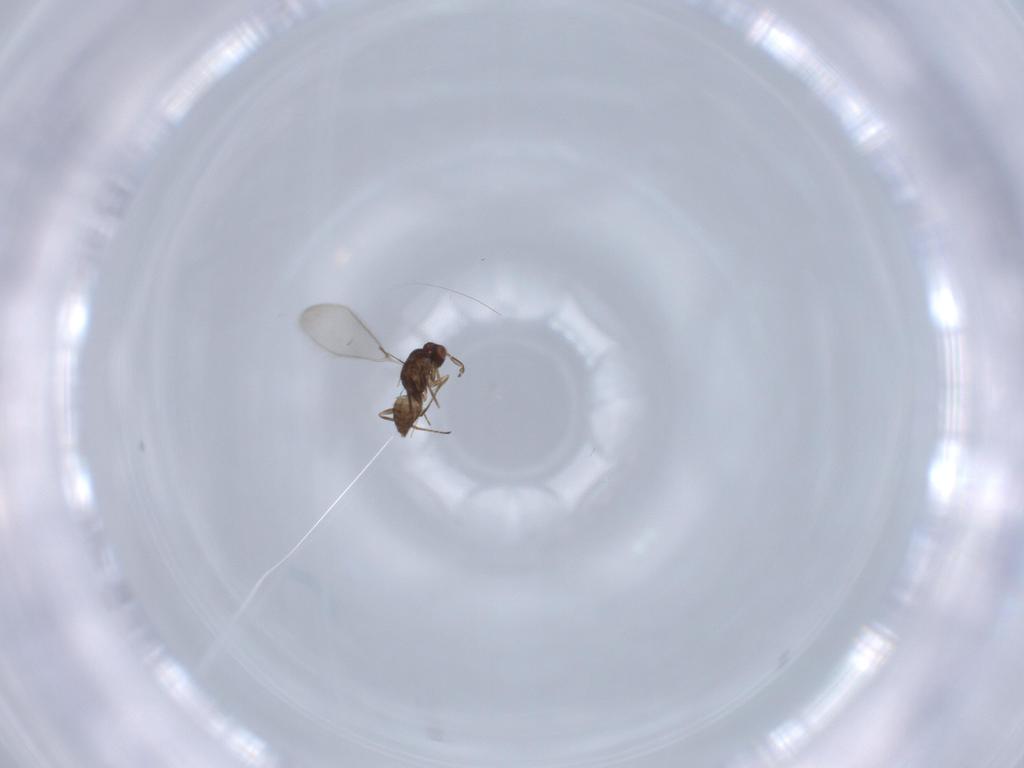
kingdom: Animalia
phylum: Arthropoda
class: Insecta
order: Hymenoptera
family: Mymaridae
